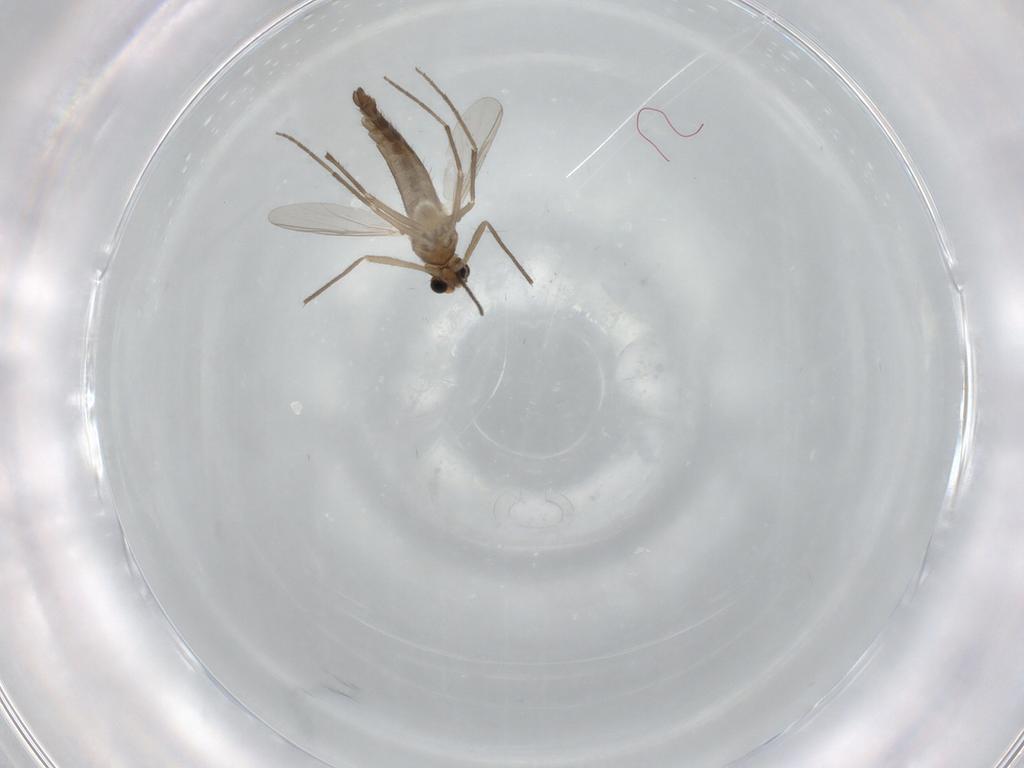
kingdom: Animalia
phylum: Arthropoda
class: Insecta
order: Diptera
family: Chironomidae
